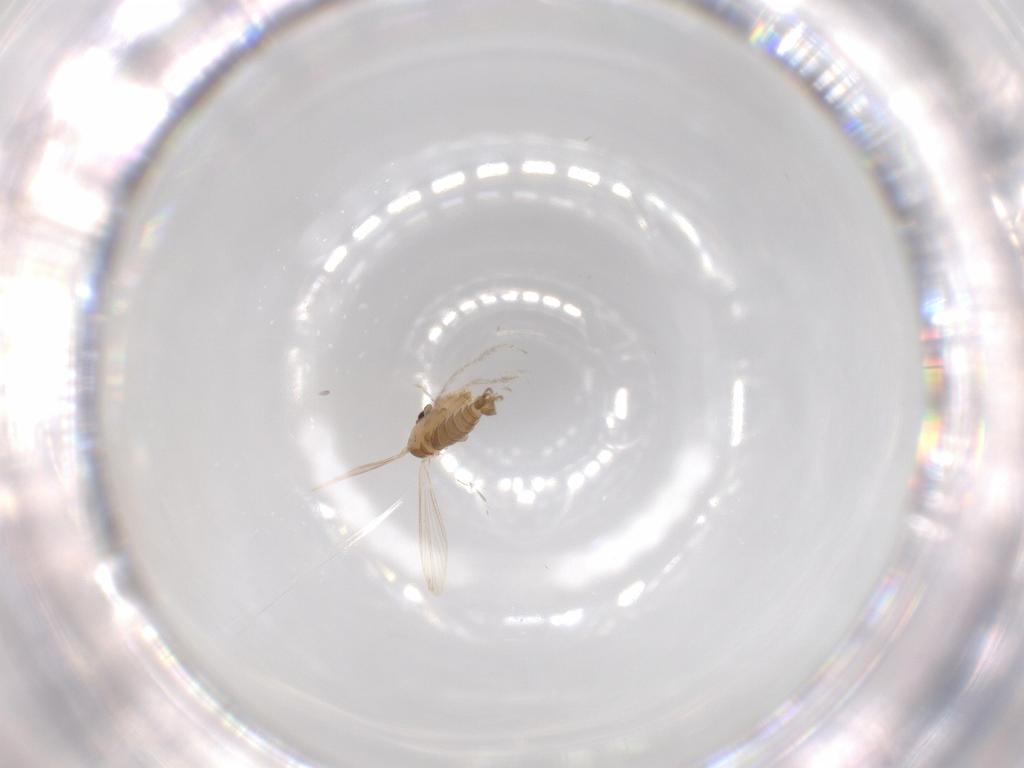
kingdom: Animalia
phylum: Arthropoda
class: Insecta
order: Diptera
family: Psychodidae
